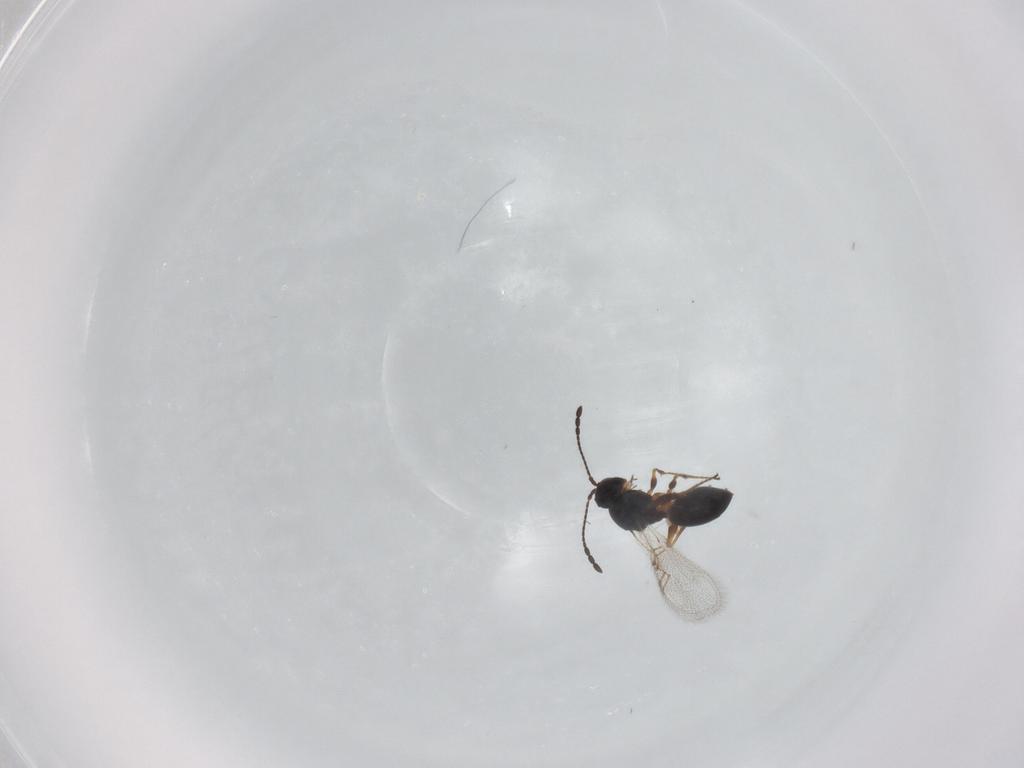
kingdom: Animalia
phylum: Arthropoda
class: Insecta
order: Hymenoptera
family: Figitidae
